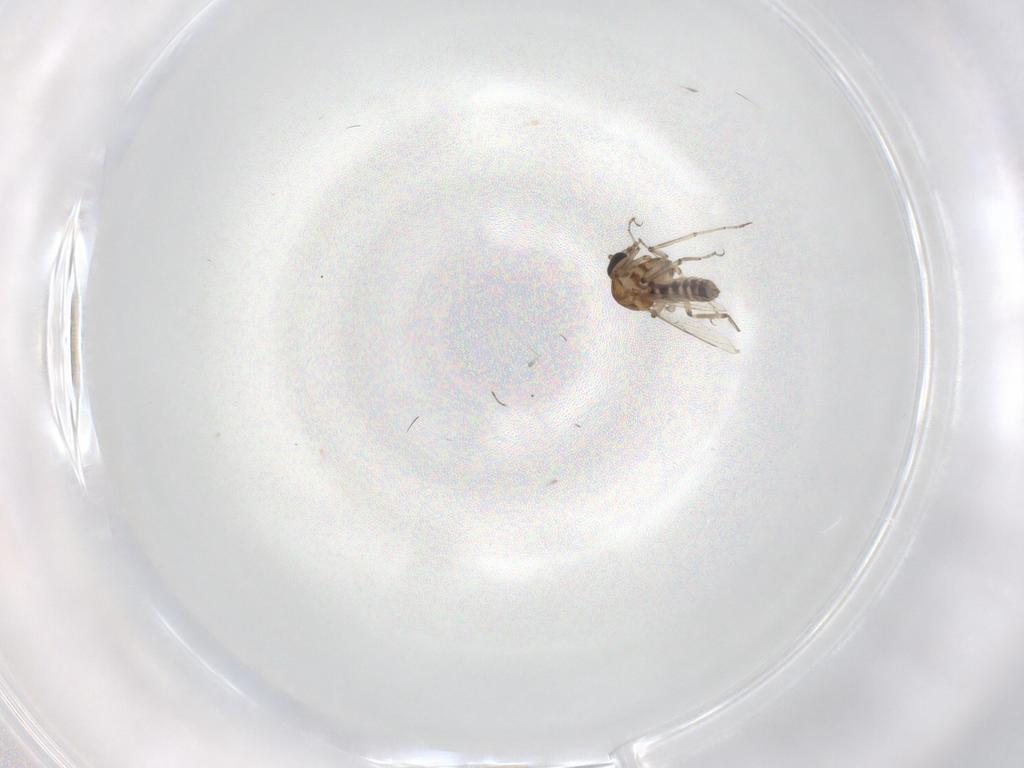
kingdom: Animalia
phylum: Arthropoda
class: Insecta
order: Diptera
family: Ceratopogonidae
